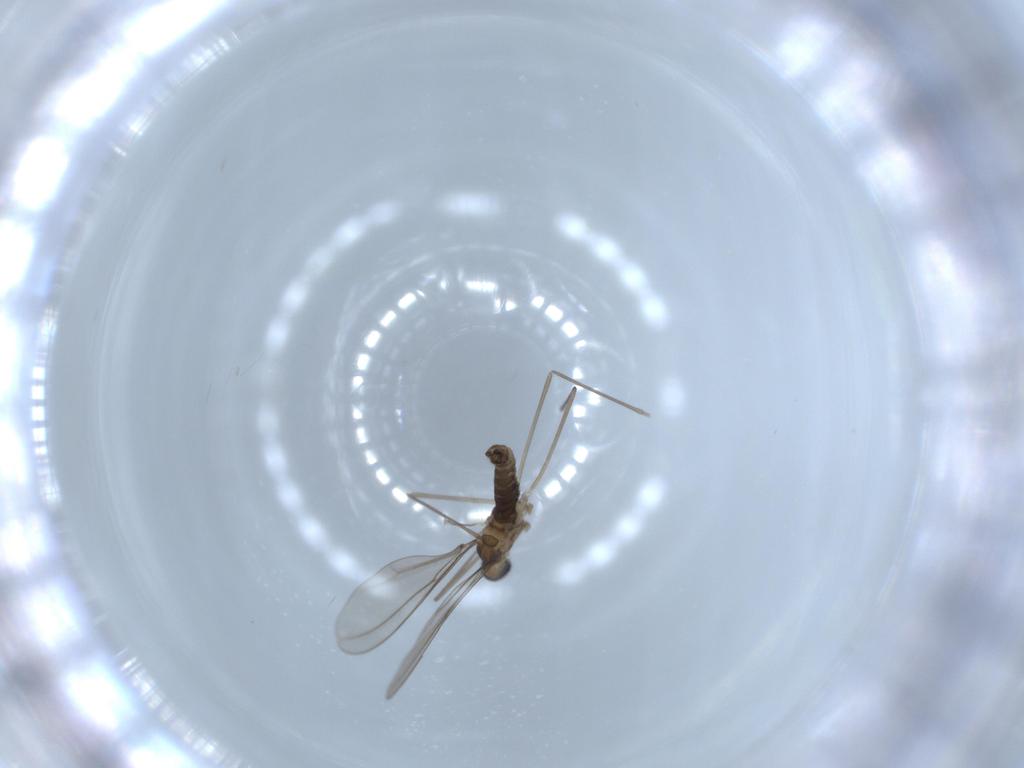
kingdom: Animalia
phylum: Arthropoda
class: Insecta
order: Diptera
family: Cecidomyiidae
